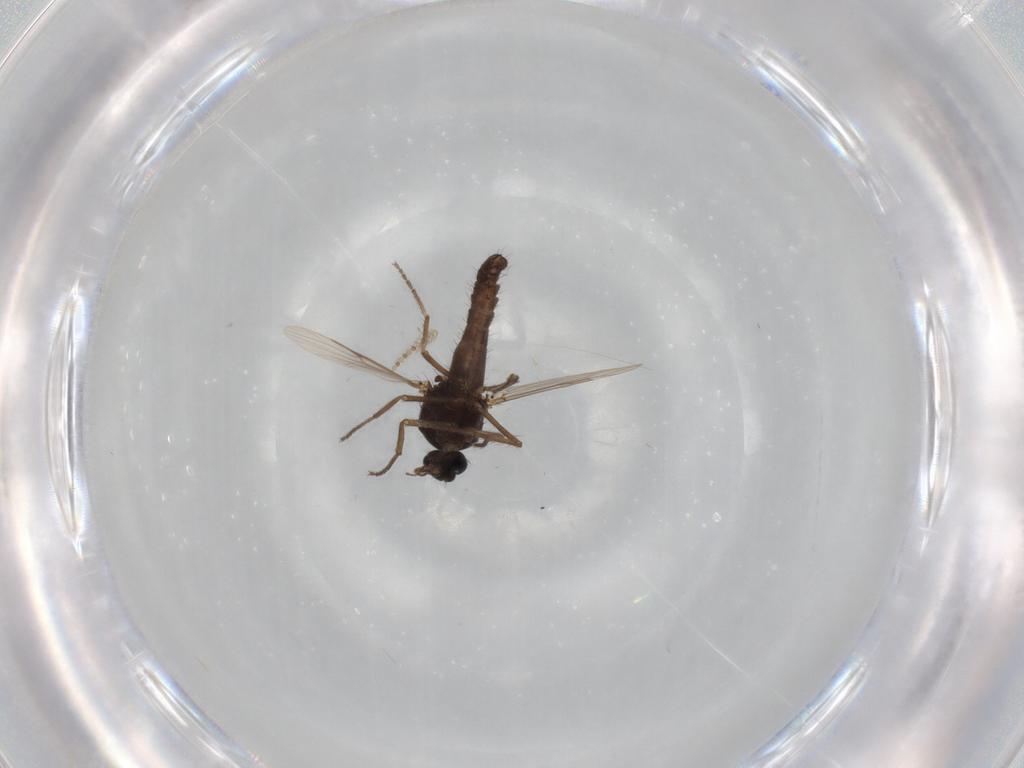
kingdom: Animalia
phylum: Arthropoda
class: Insecta
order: Diptera
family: Ceratopogonidae
